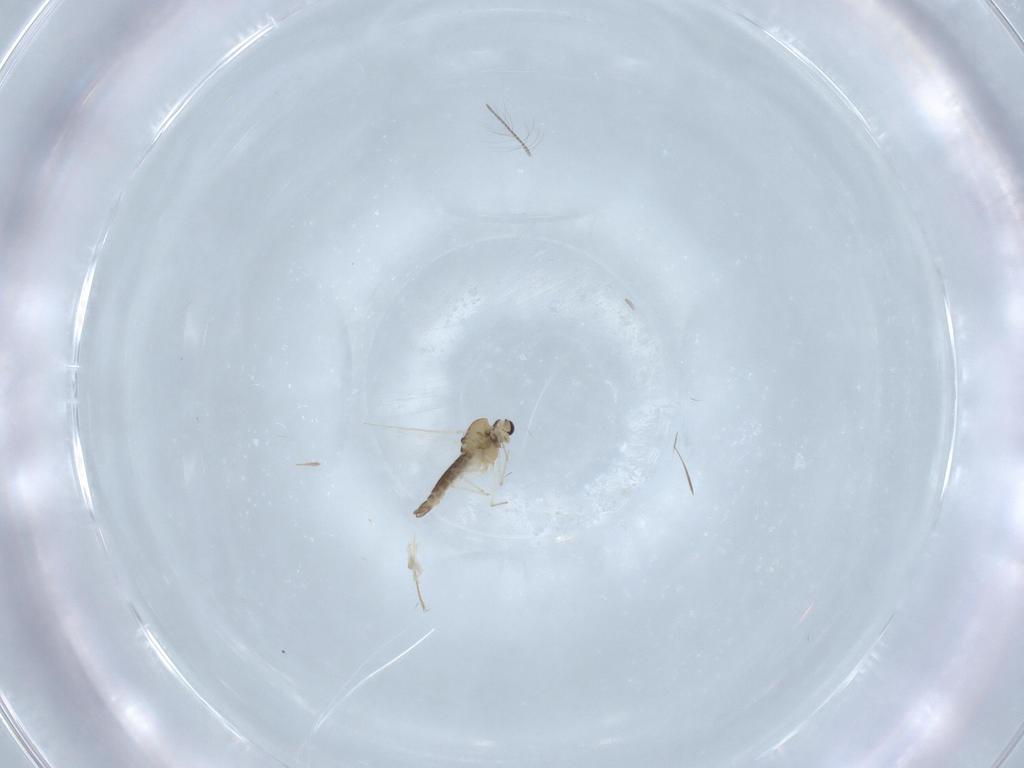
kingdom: Animalia
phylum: Arthropoda
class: Insecta
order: Diptera
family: Chironomidae
